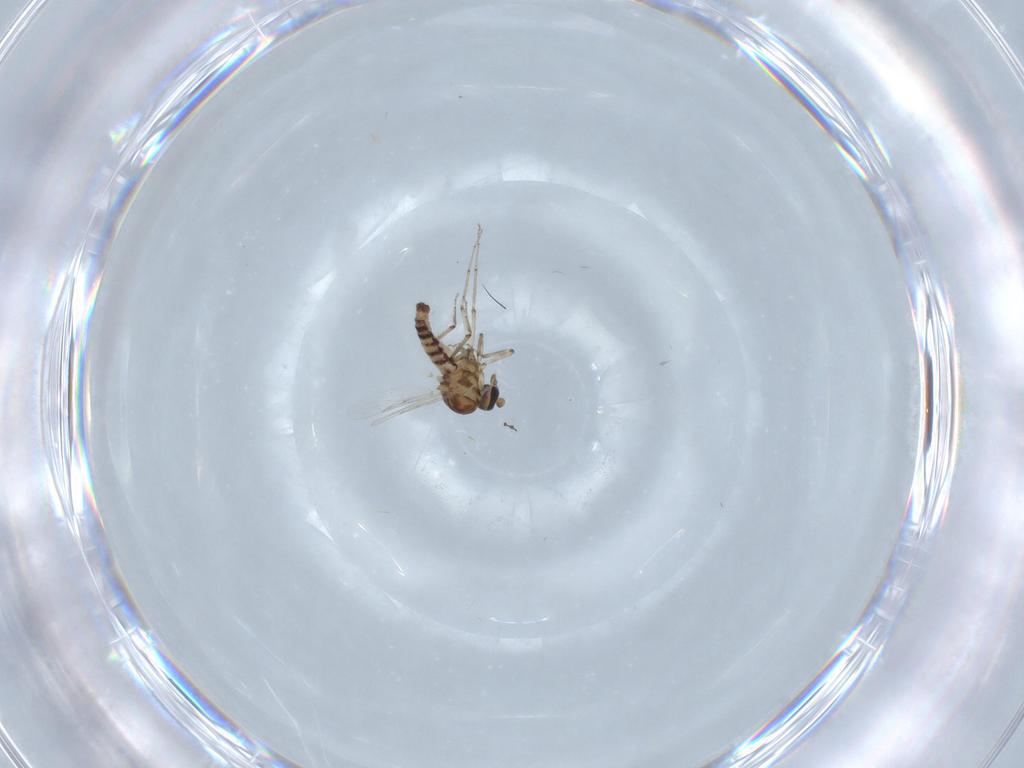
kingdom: Animalia
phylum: Arthropoda
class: Insecta
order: Diptera
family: Ceratopogonidae
